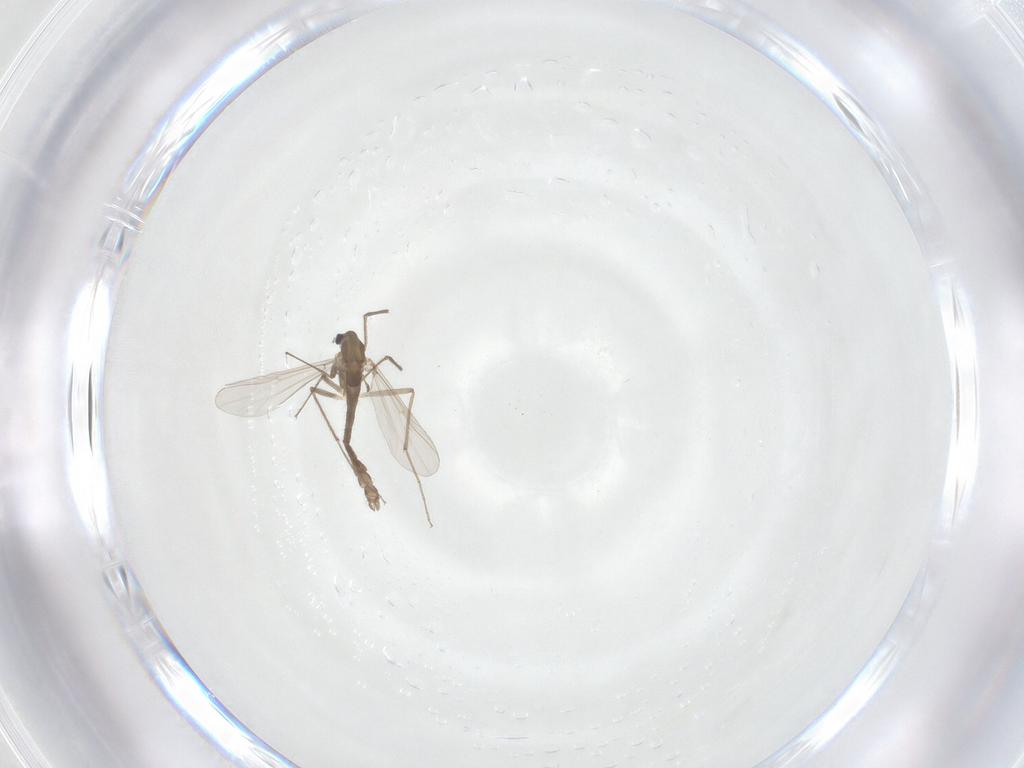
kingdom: Animalia
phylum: Arthropoda
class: Insecta
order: Diptera
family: Chironomidae
